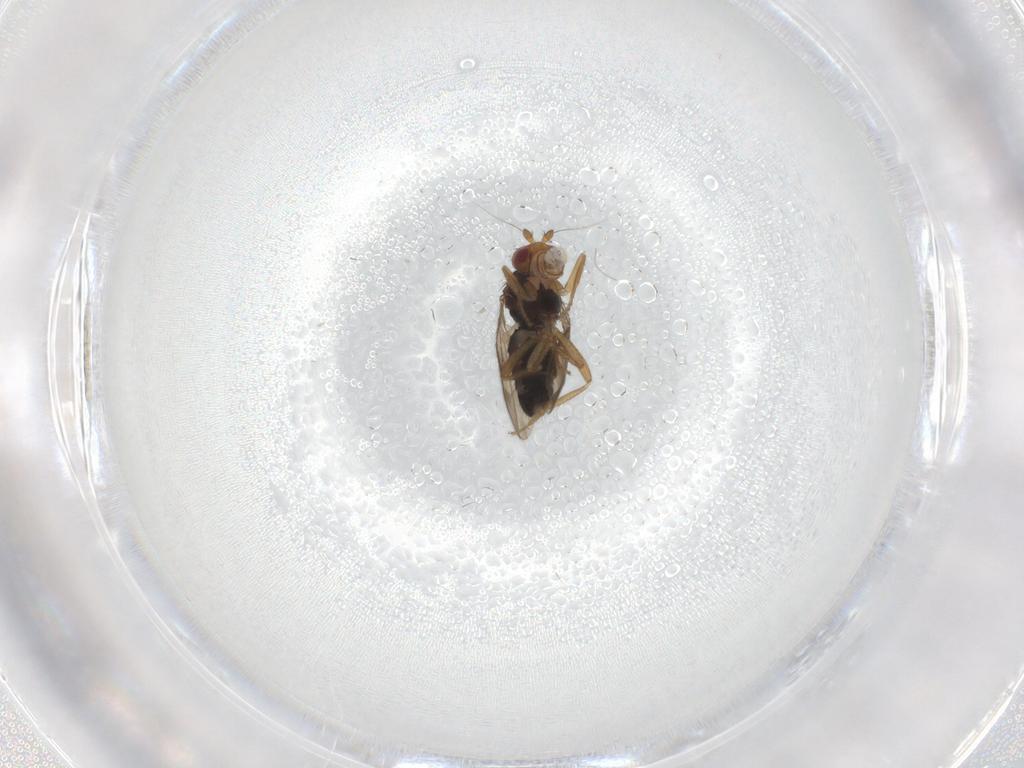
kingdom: Animalia
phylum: Arthropoda
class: Insecta
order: Diptera
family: Phoridae
